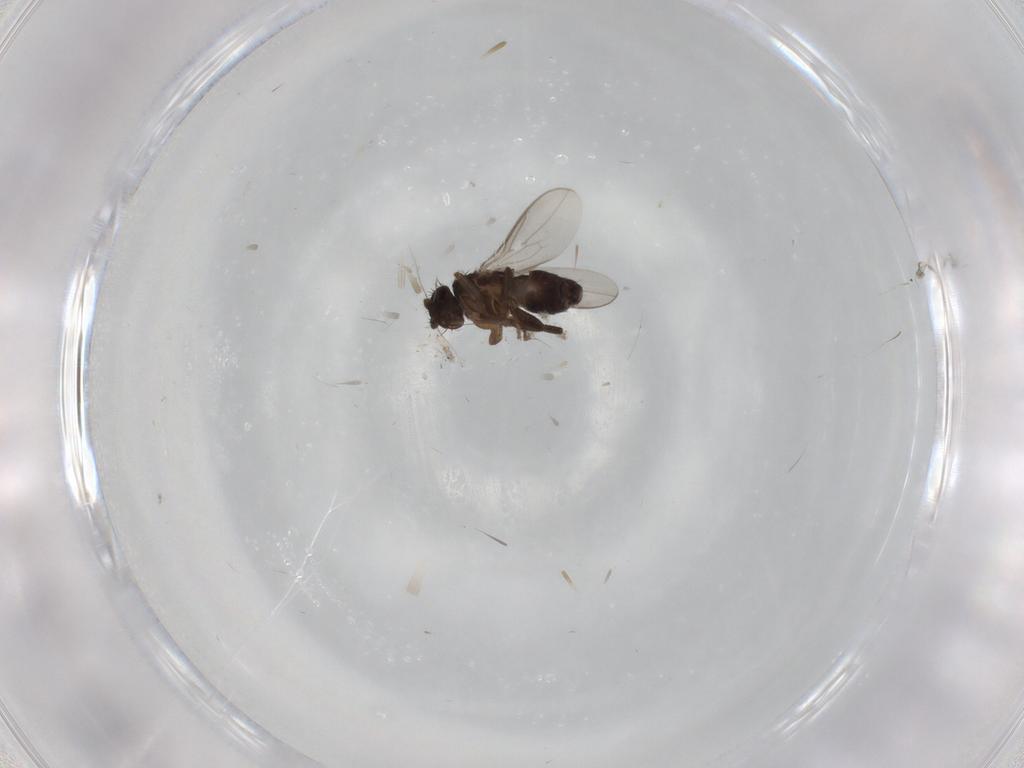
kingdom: Animalia
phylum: Arthropoda
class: Insecta
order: Diptera
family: Sphaeroceridae
